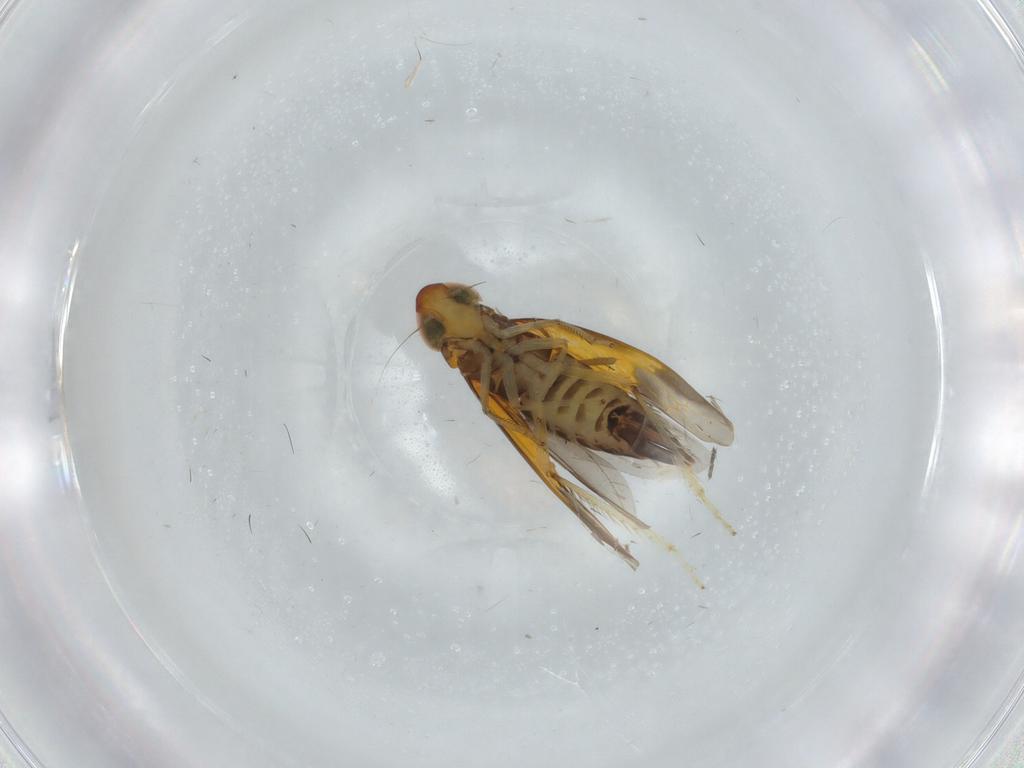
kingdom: Animalia
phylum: Arthropoda
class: Insecta
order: Hemiptera
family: Cicadellidae
